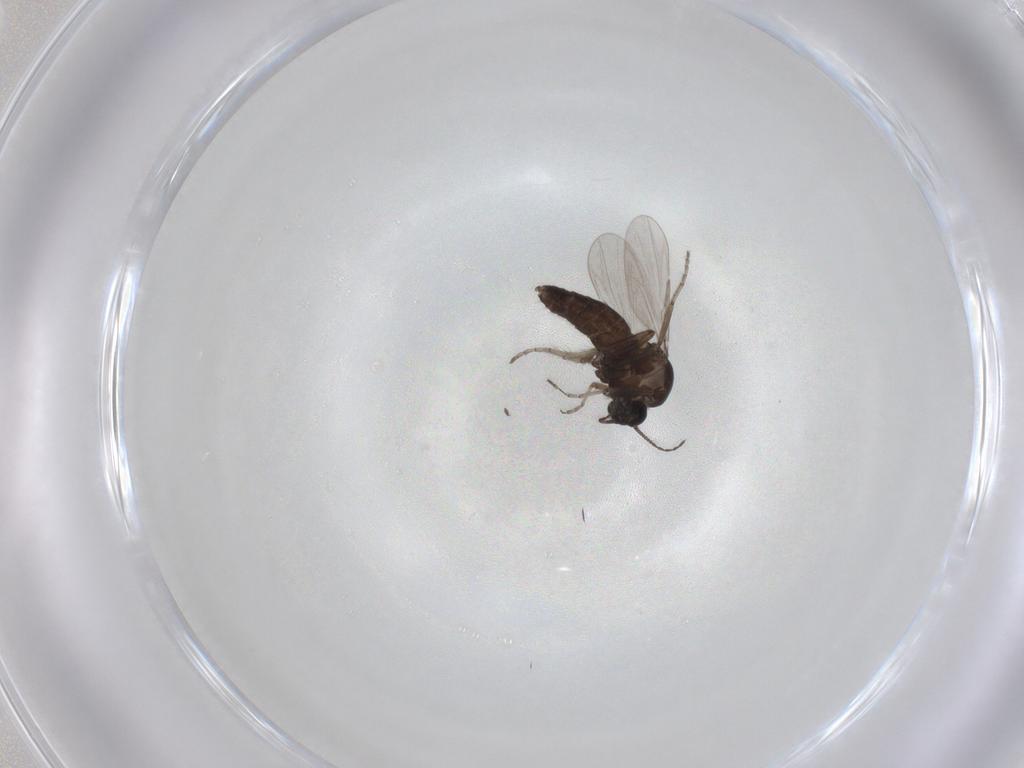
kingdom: Animalia
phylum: Arthropoda
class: Insecta
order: Diptera
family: Ceratopogonidae
